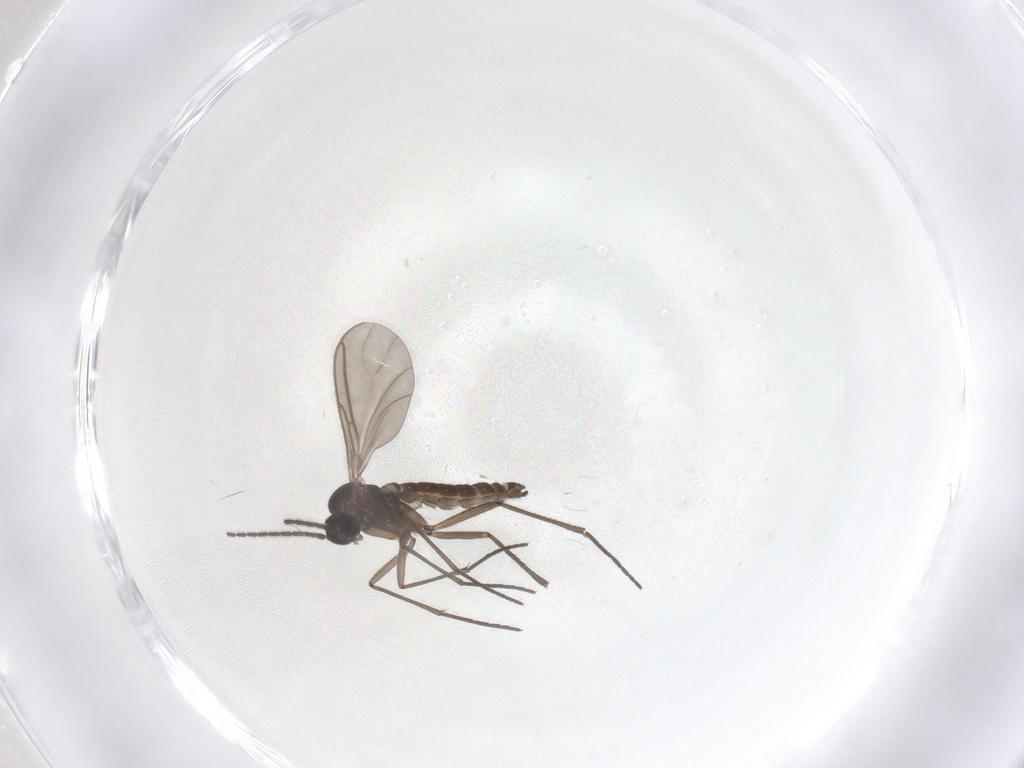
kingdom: Animalia
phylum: Arthropoda
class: Insecta
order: Diptera
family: Sciaridae
